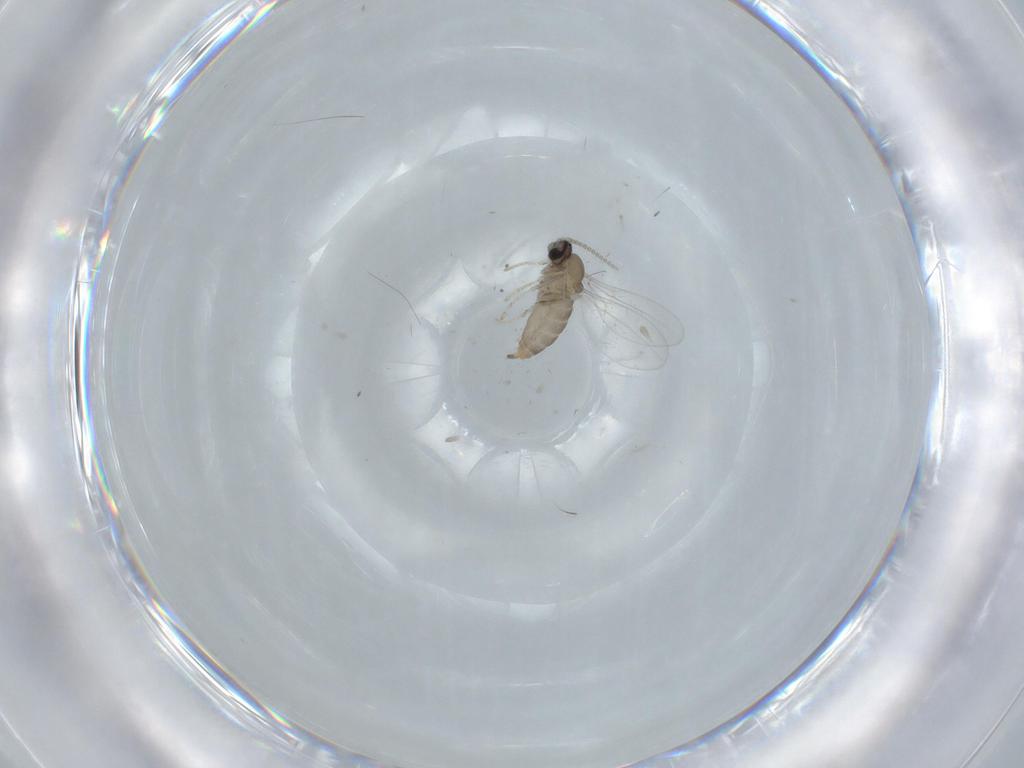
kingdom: Animalia
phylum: Arthropoda
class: Insecta
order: Diptera
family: Cecidomyiidae
